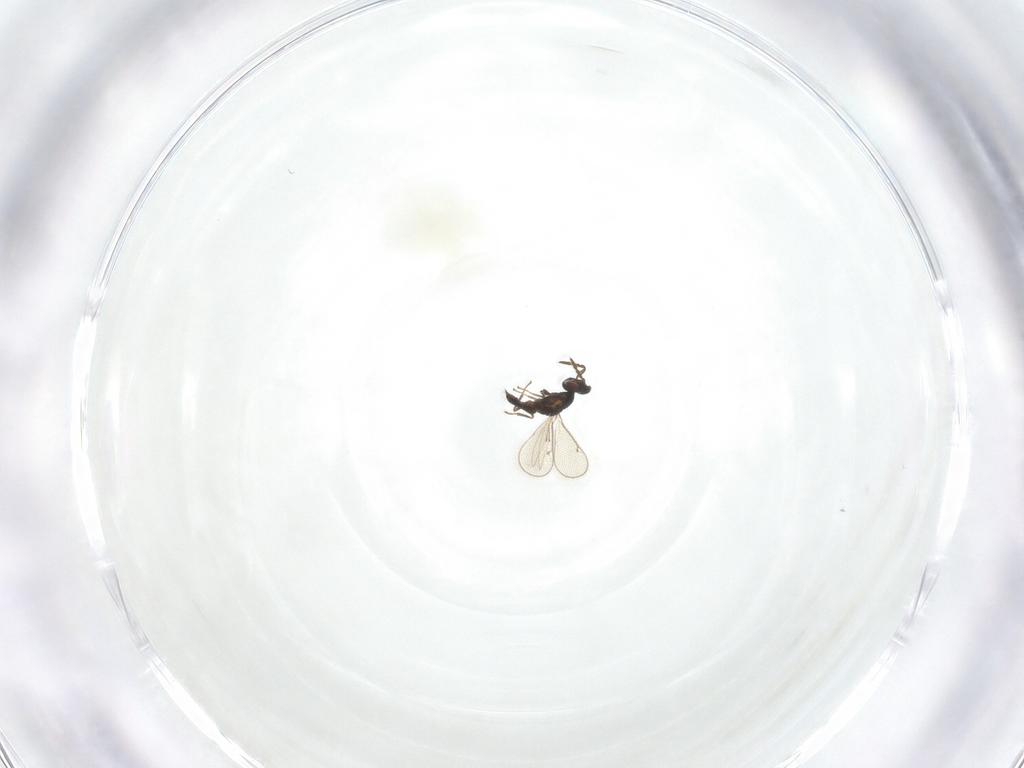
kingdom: Animalia
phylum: Arthropoda
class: Insecta
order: Hymenoptera
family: Eulophidae
